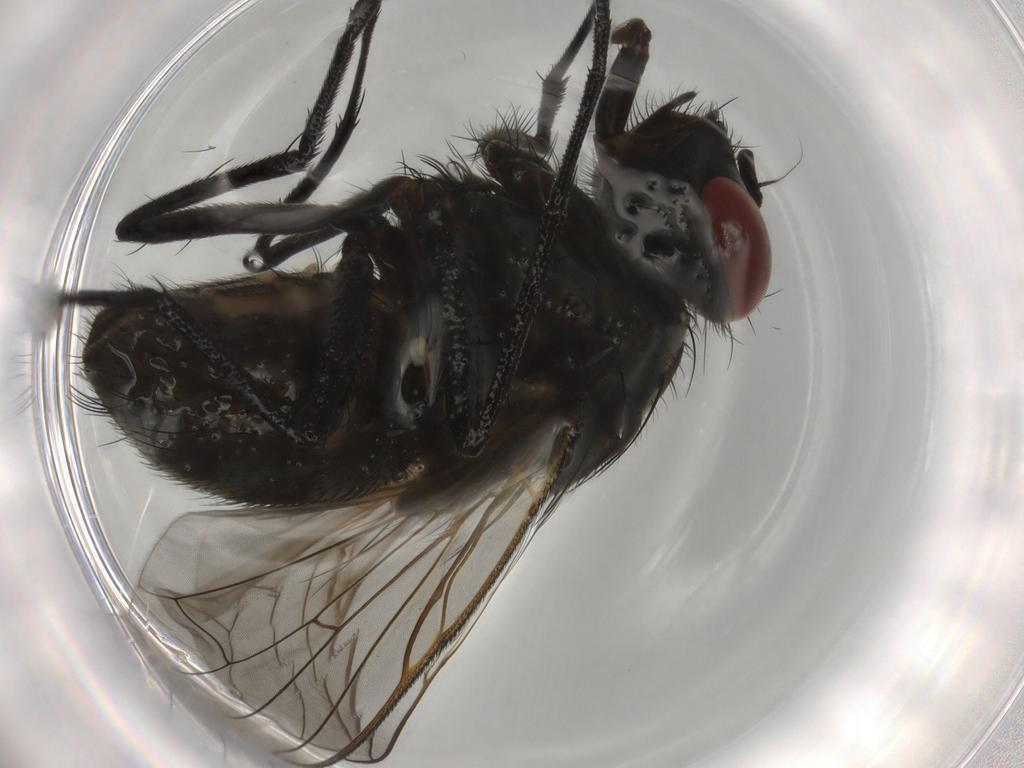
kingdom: Animalia
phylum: Arthropoda
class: Insecta
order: Diptera
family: Muscidae
